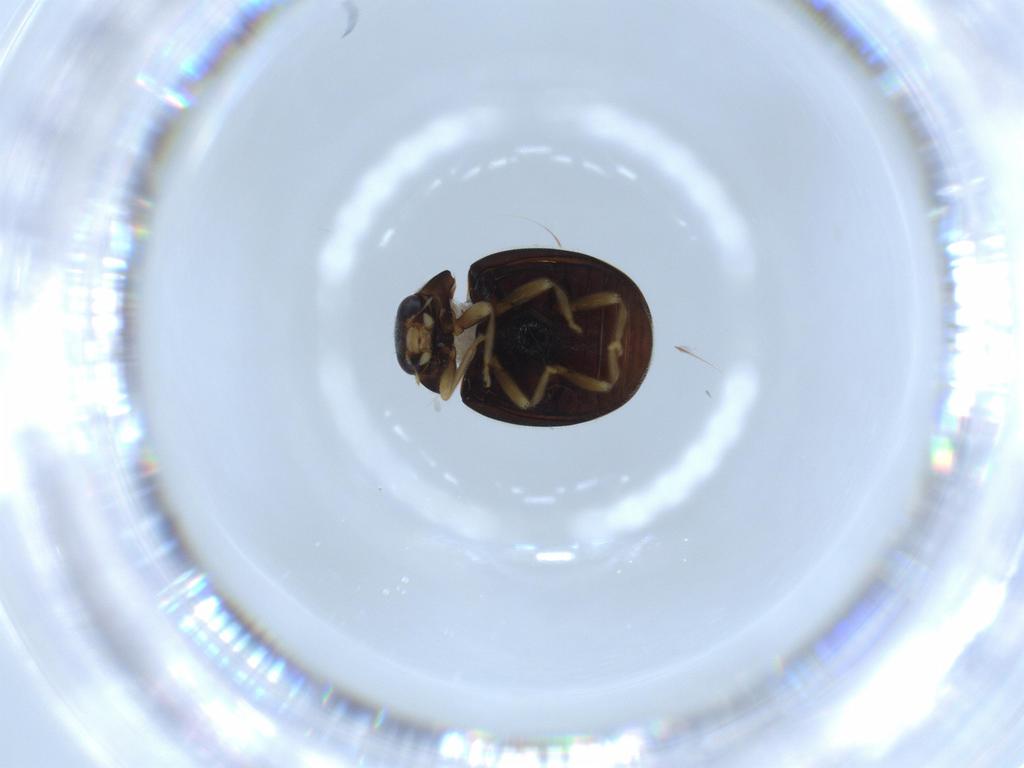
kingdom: Animalia
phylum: Arthropoda
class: Insecta
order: Coleoptera
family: Coccinellidae
